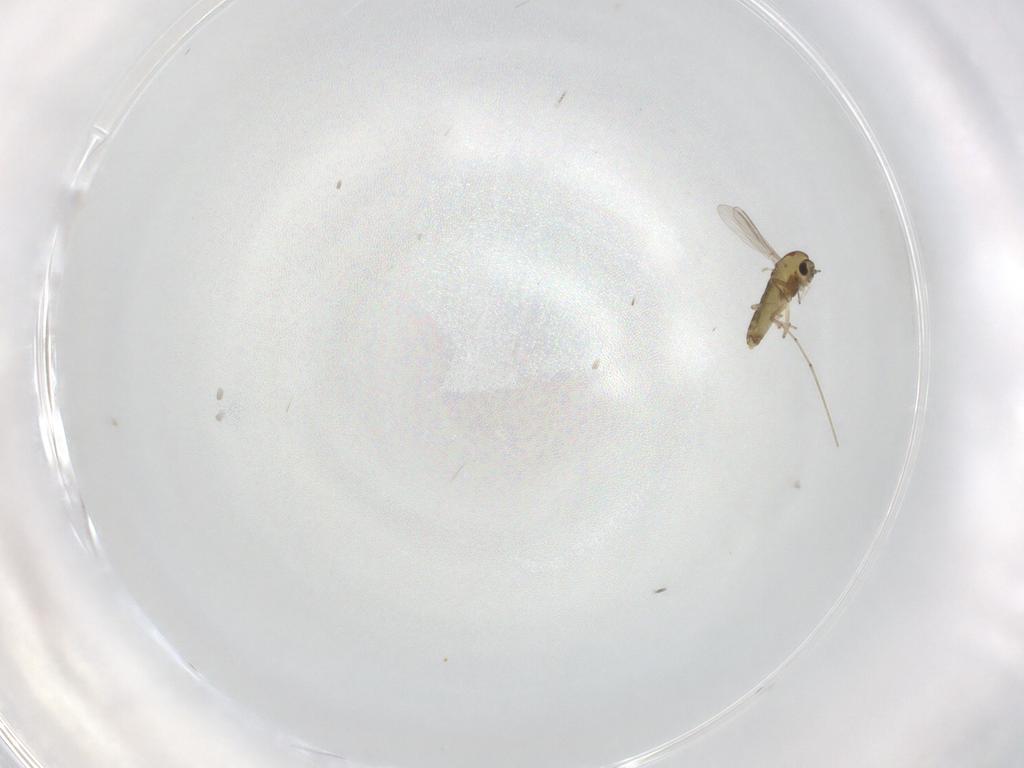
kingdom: Animalia
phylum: Arthropoda
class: Insecta
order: Diptera
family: Chironomidae
